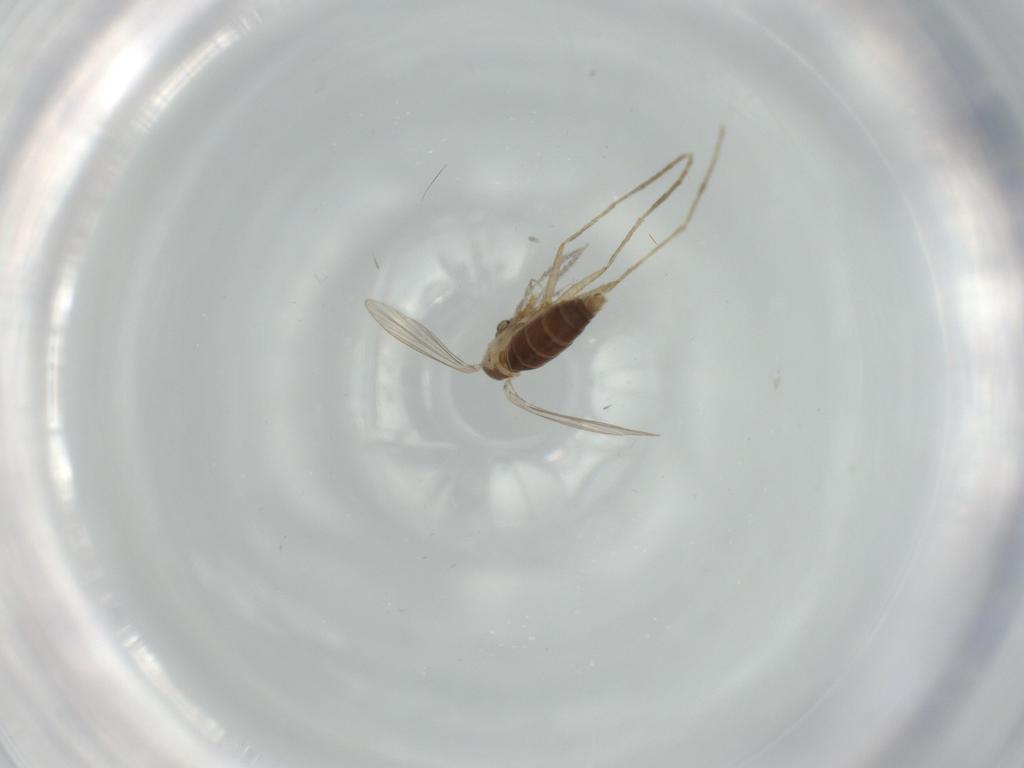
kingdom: Animalia
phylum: Arthropoda
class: Insecta
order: Diptera
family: Psychodidae
